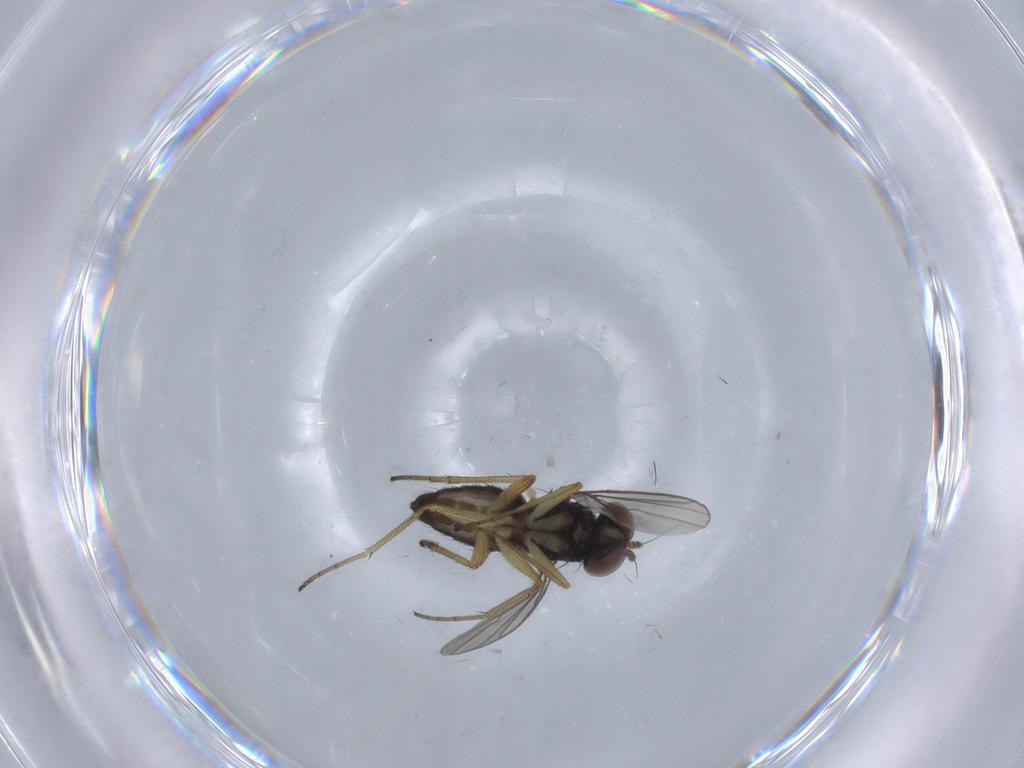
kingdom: Animalia
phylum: Arthropoda
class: Insecta
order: Diptera
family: Dolichopodidae
